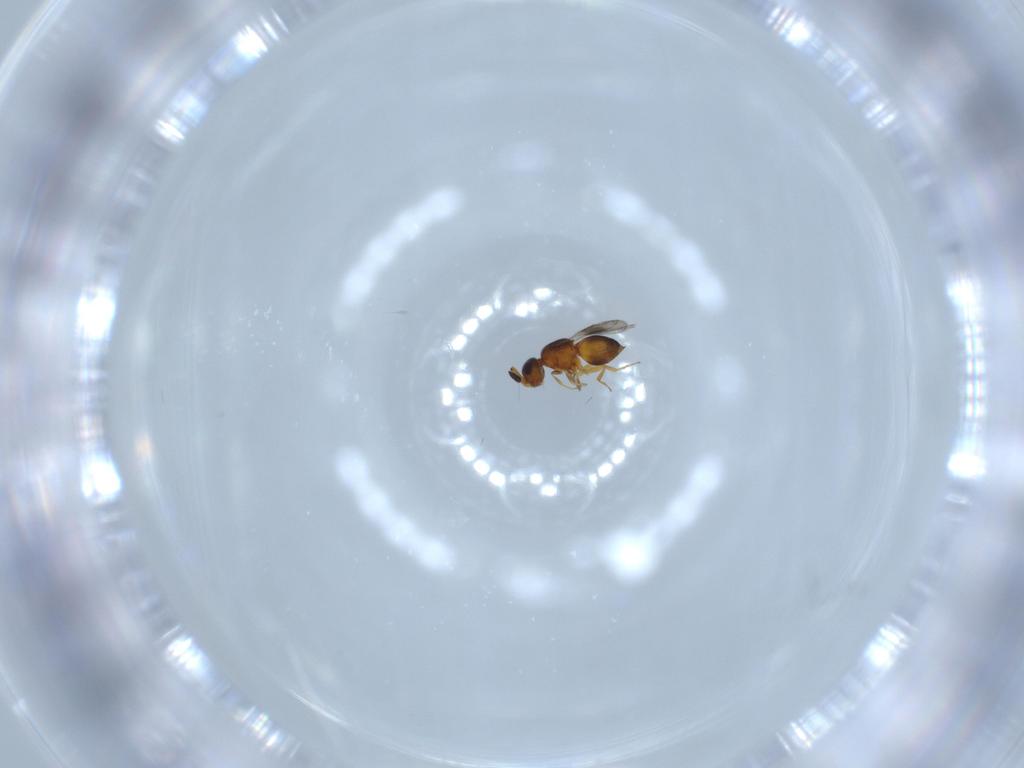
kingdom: Animalia
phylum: Arthropoda
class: Insecta
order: Hymenoptera
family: Ceraphronidae
